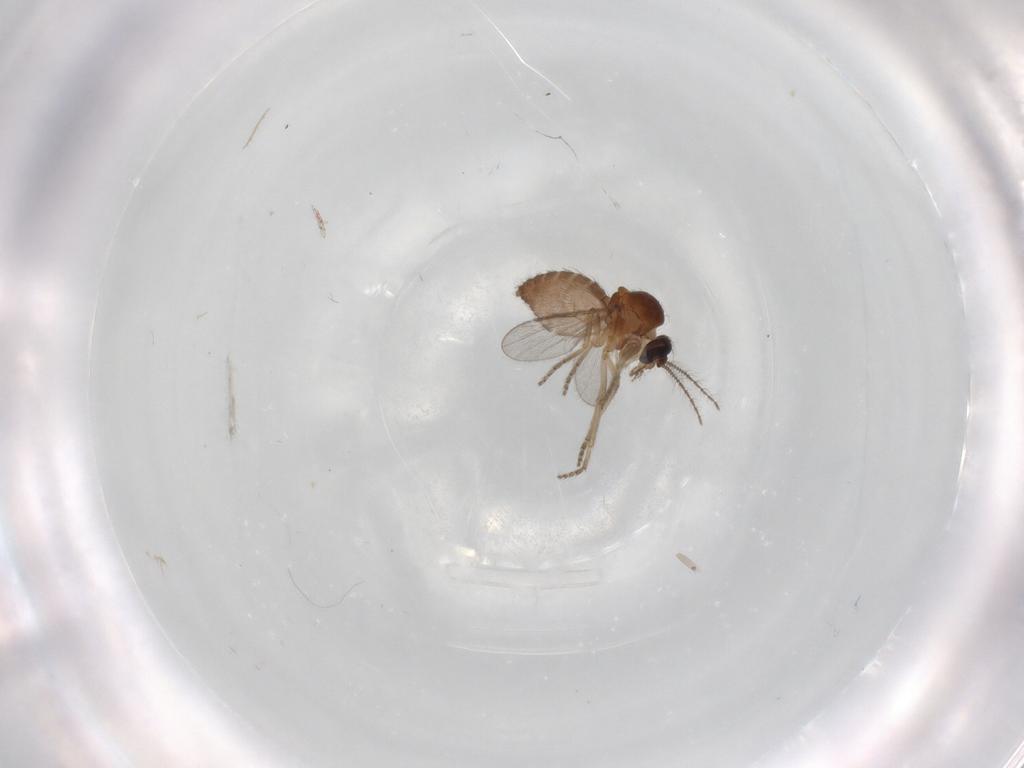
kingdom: Animalia
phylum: Arthropoda
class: Insecta
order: Diptera
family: Ceratopogonidae
